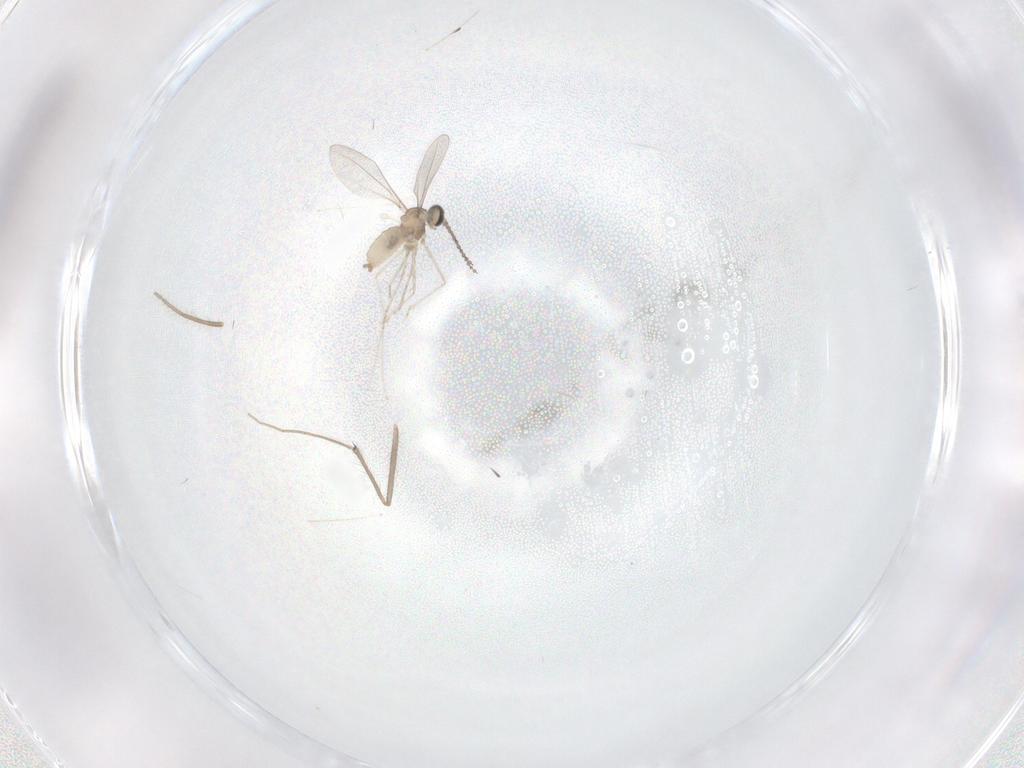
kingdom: Animalia
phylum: Arthropoda
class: Insecta
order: Diptera
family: Chironomidae
